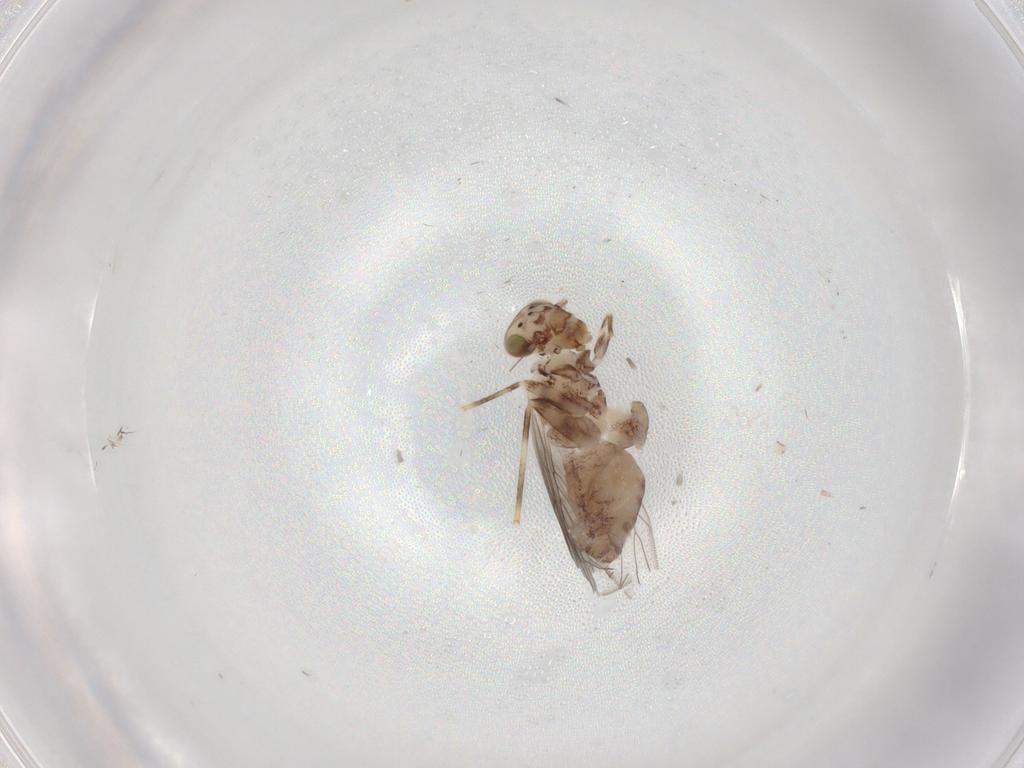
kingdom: Animalia
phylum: Arthropoda
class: Insecta
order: Psocodea
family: Lepidopsocidae
